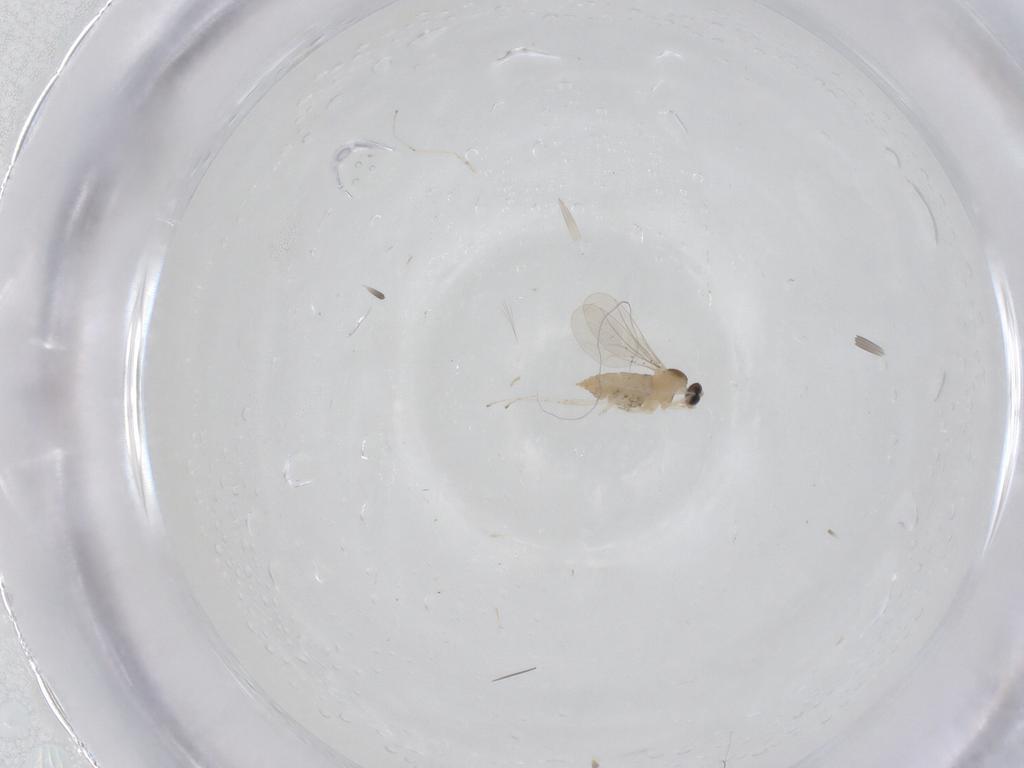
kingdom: Animalia
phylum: Arthropoda
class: Insecta
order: Diptera
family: Cecidomyiidae
